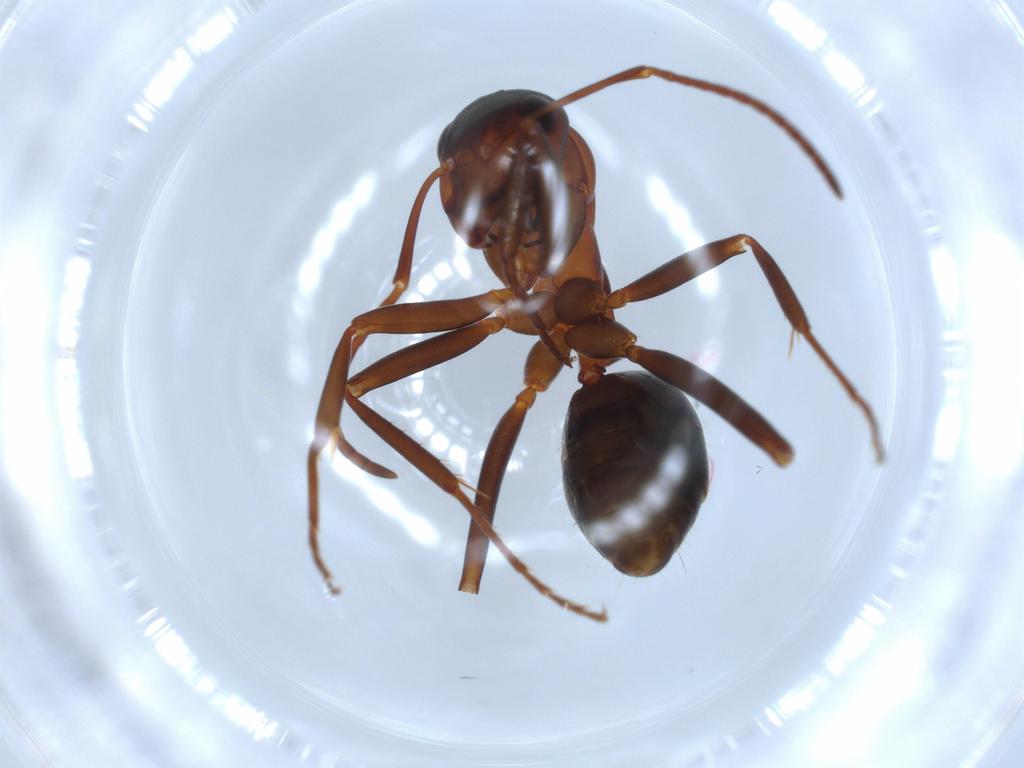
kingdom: Animalia
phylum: Arthropoda
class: Insecta
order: Hymenoptera
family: Formicidae
